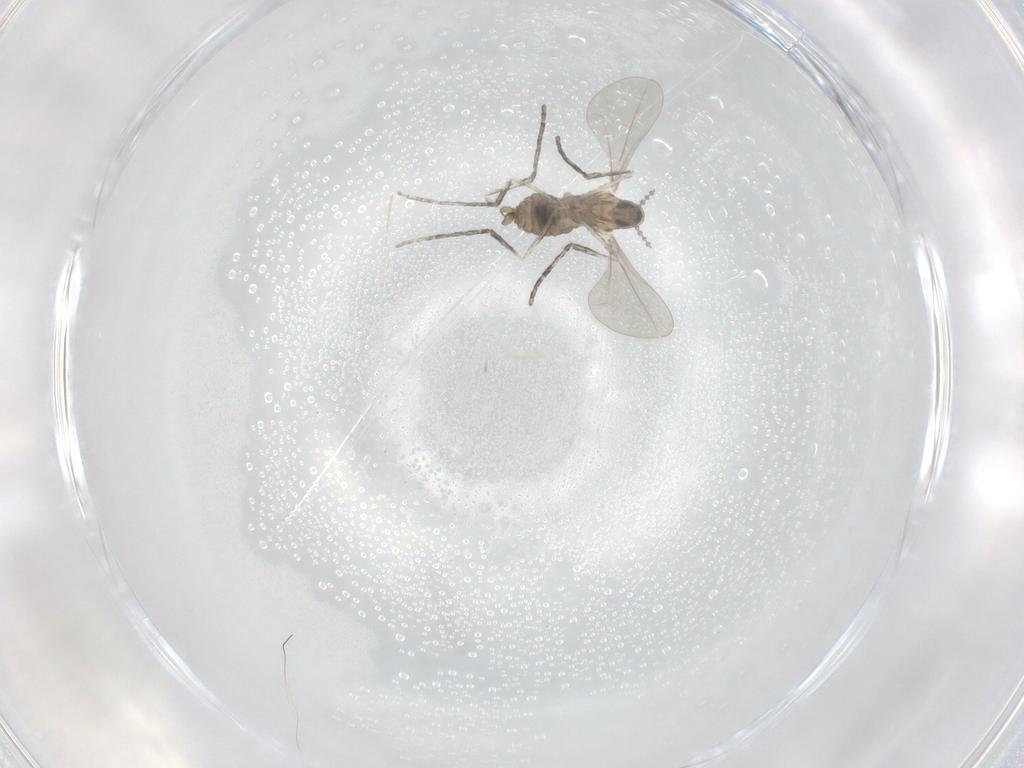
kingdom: Animalia
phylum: Arthropoda
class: Insecta
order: Diptera
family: Cecidomyiidae
